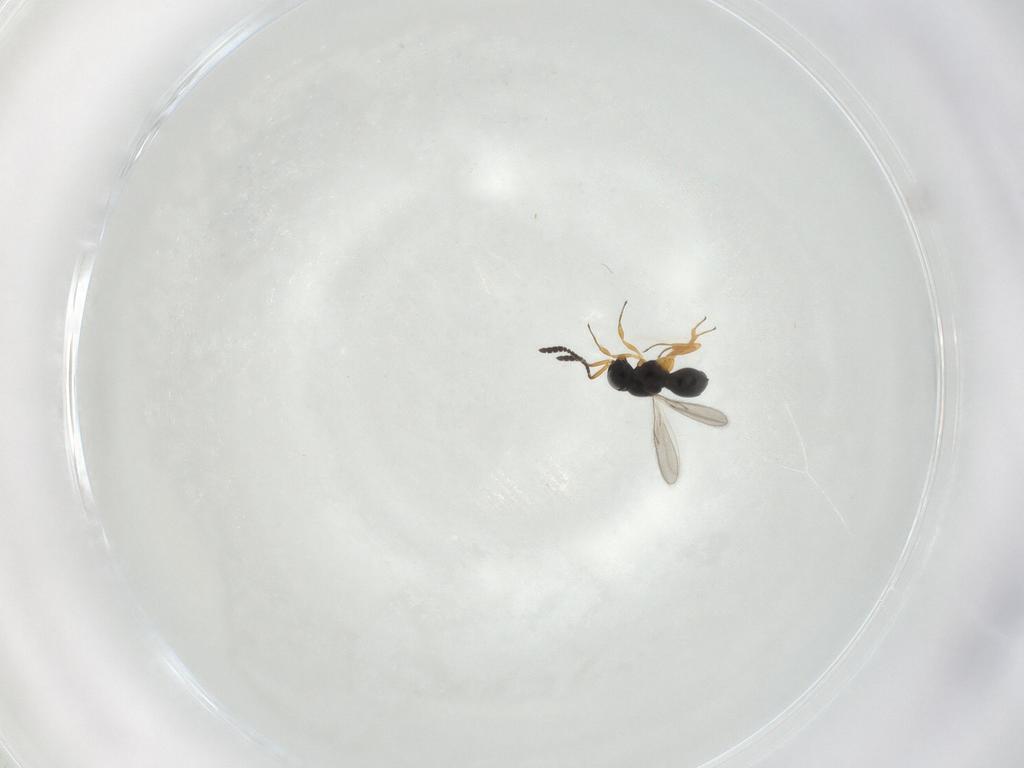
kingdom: Animalia
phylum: Arthropoda
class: Insecta
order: Hymenoptera
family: Scelionidae
